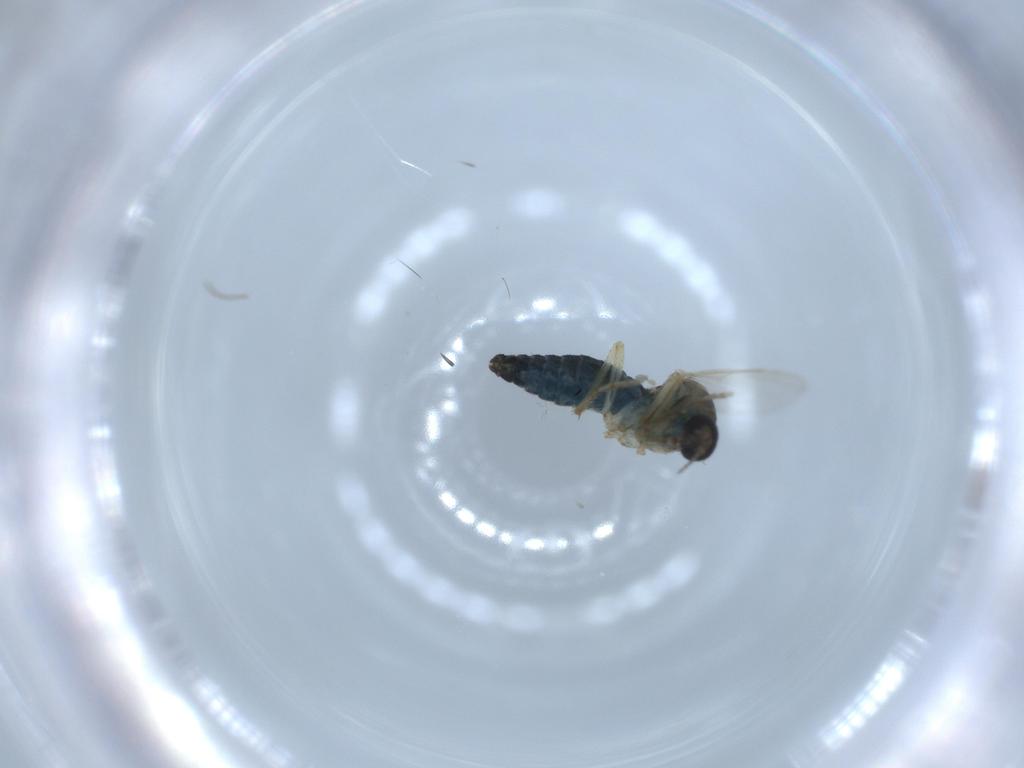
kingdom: Animalia
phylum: Arthropoda
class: Insecta
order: Diptera
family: Ceratopogonidae
